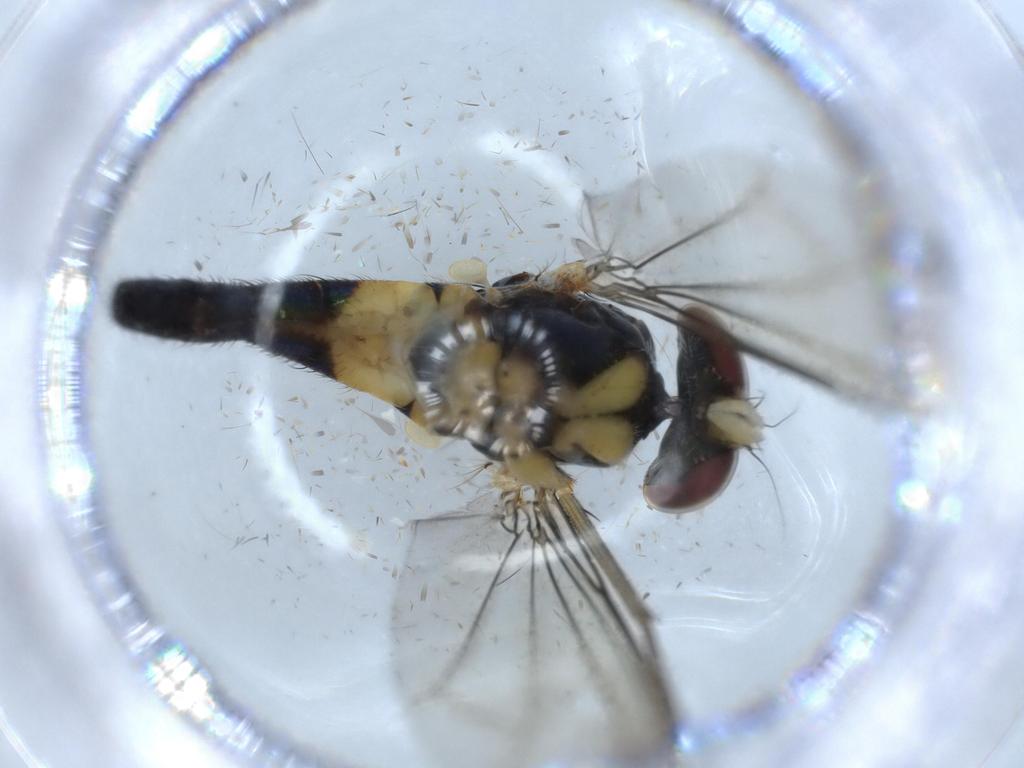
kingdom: Animalia
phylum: Arthropoda
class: Insecta
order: Diptera
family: Dolichopodidae
